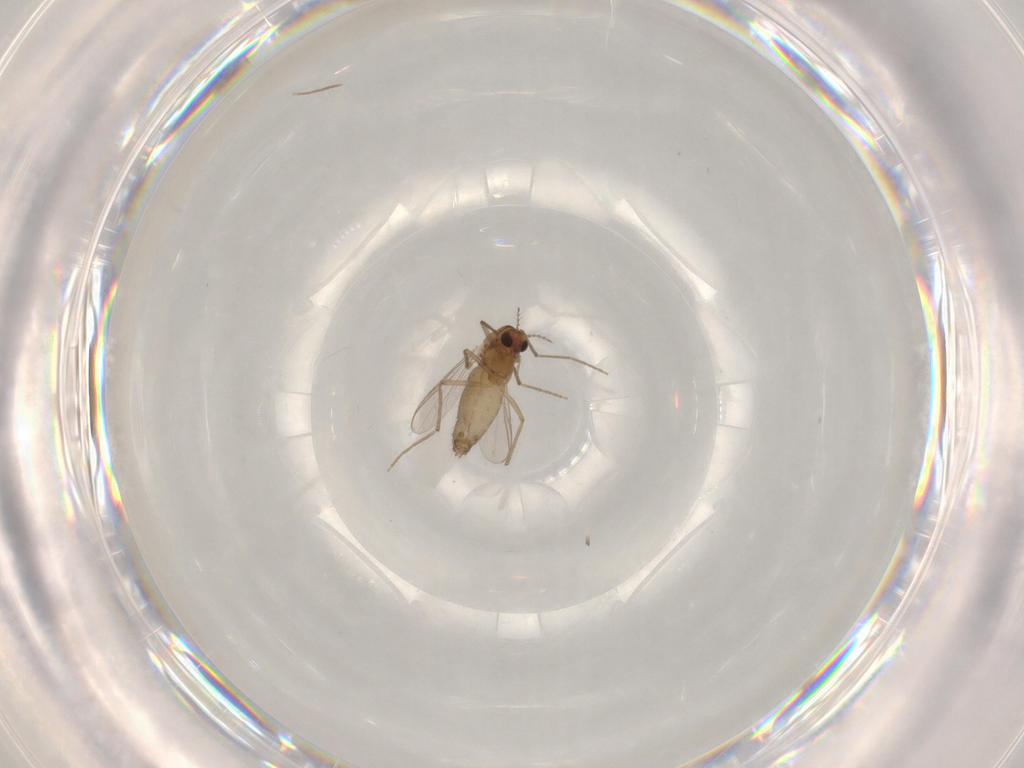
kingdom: Animalia
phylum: Arthropoda
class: Insecta
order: Diptera
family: Chironomidae
